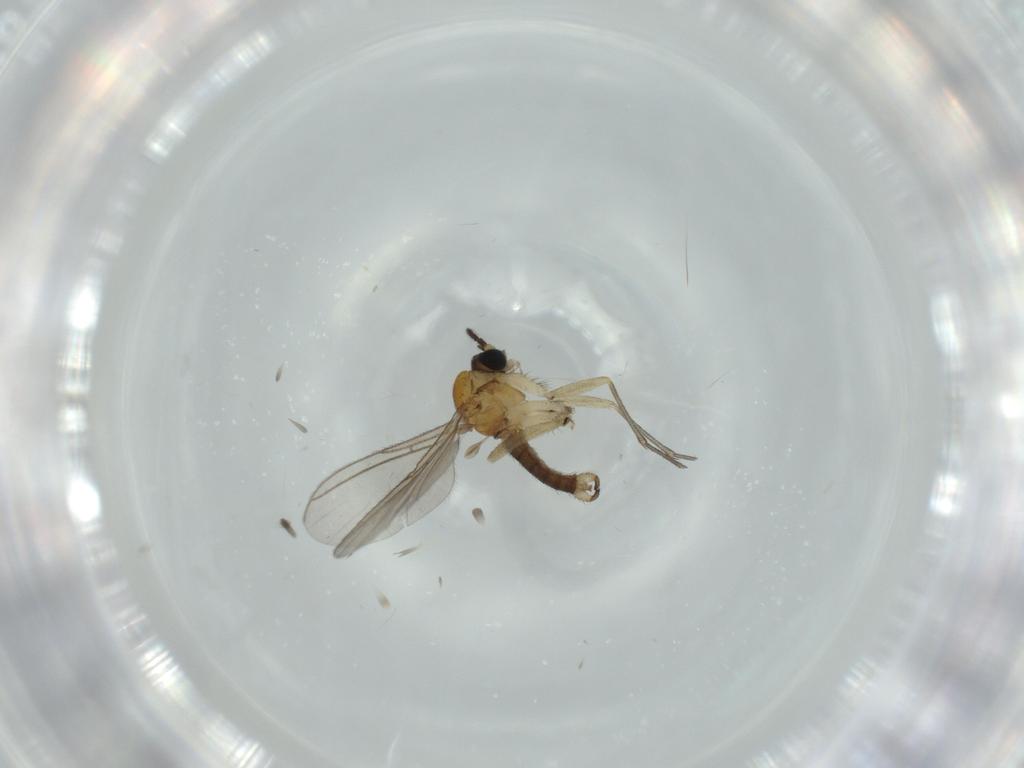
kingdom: Animalia
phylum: Arthropoda
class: Insecta
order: Diptera
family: Sciaridae
